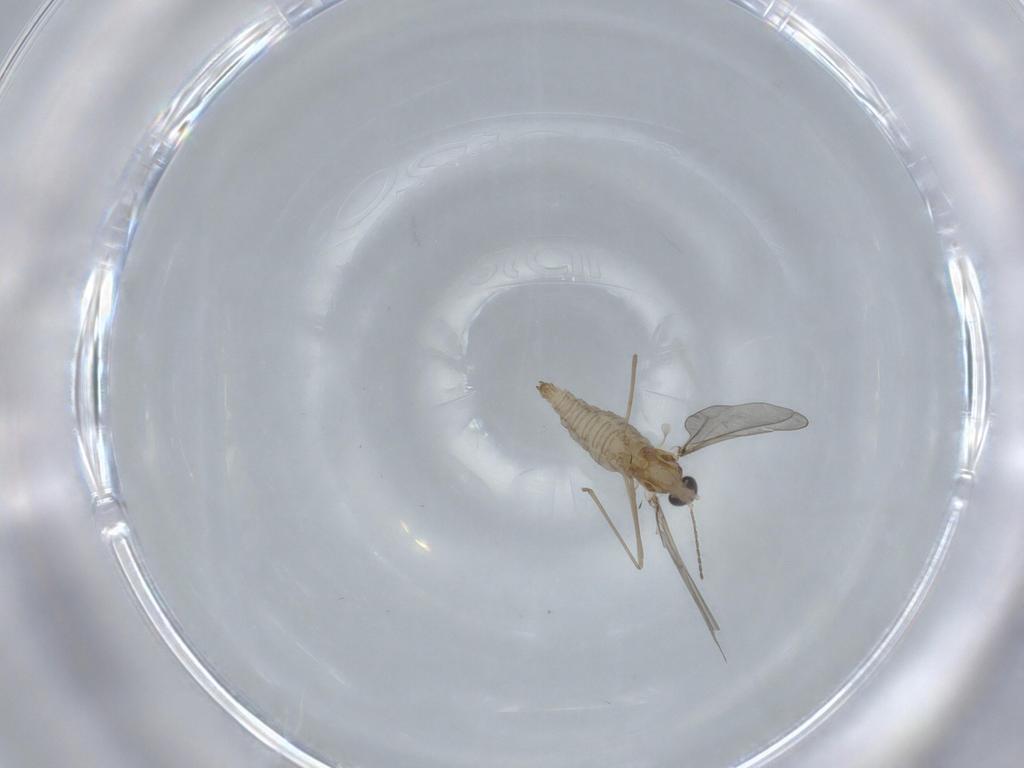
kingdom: Animalia
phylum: Arthropoda
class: Insecta
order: Diptera
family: Cecidomyiidae
